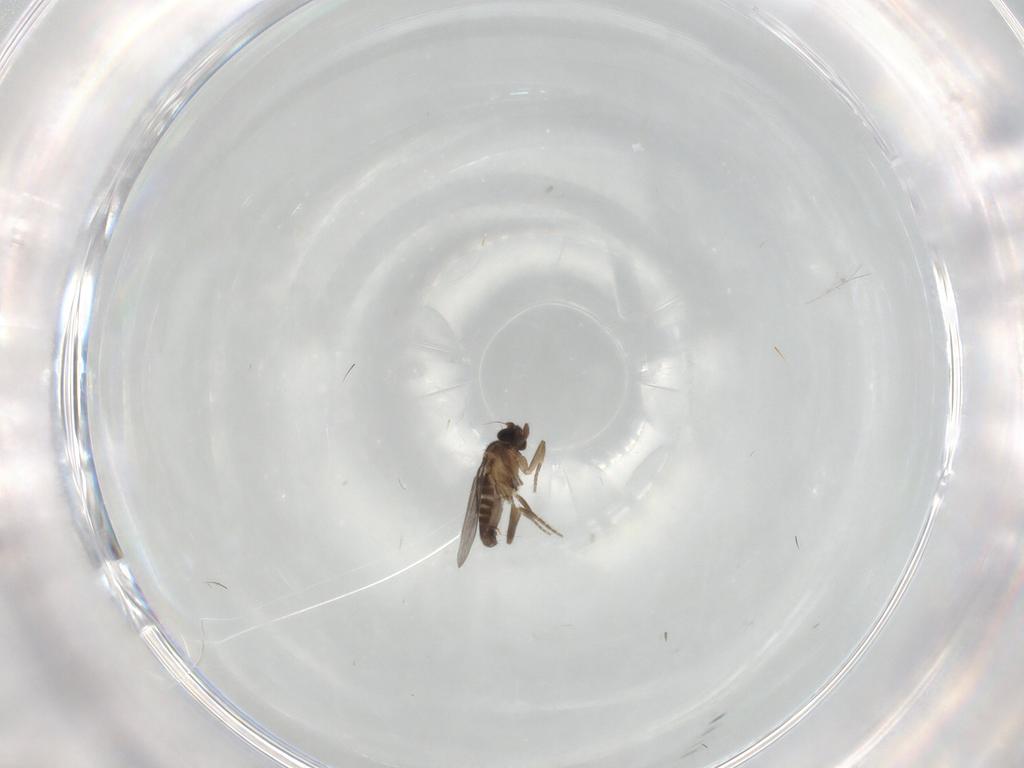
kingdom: Animalia
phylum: Arthropoda
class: Insecta
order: Diptera
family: Chironomidae
